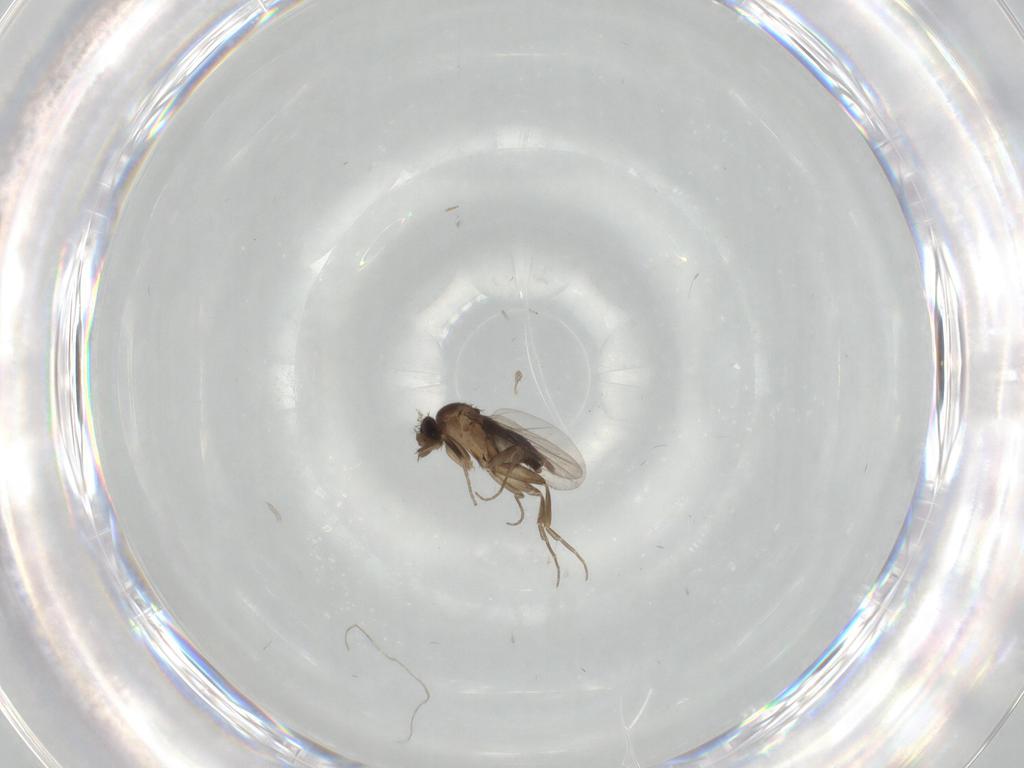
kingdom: Animalia
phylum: Arthropoda
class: Insecta
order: Diptera
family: Phoridae
